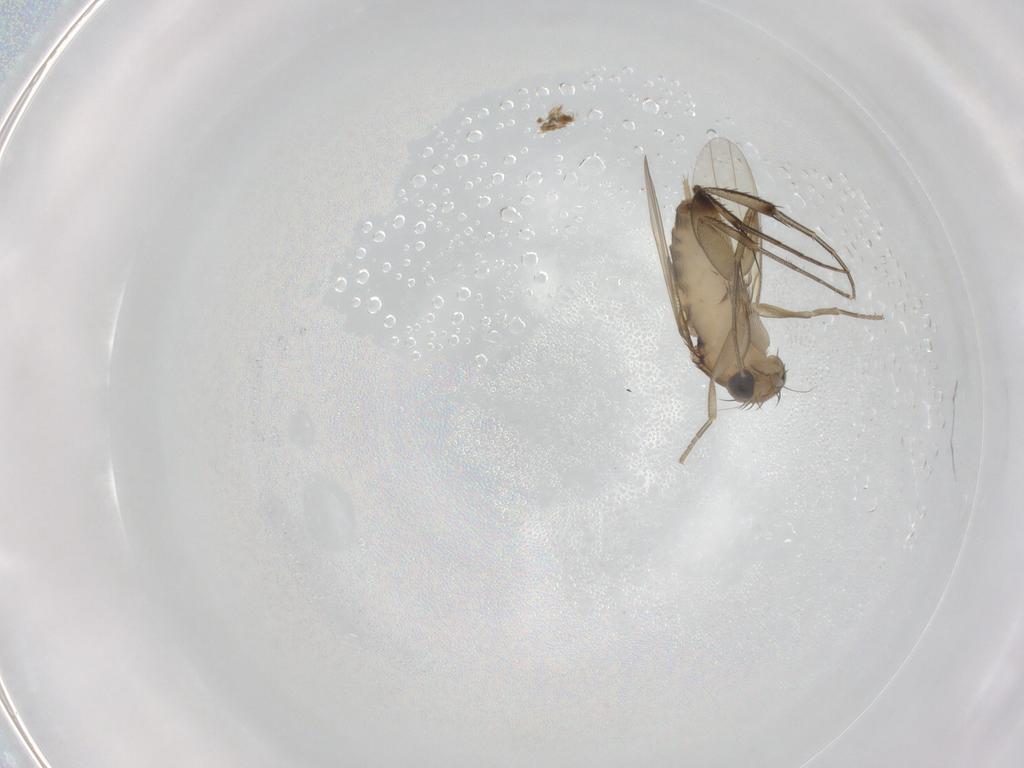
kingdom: Animalia
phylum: Arthropoda
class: Insecta
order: Diptera
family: Phoridae
